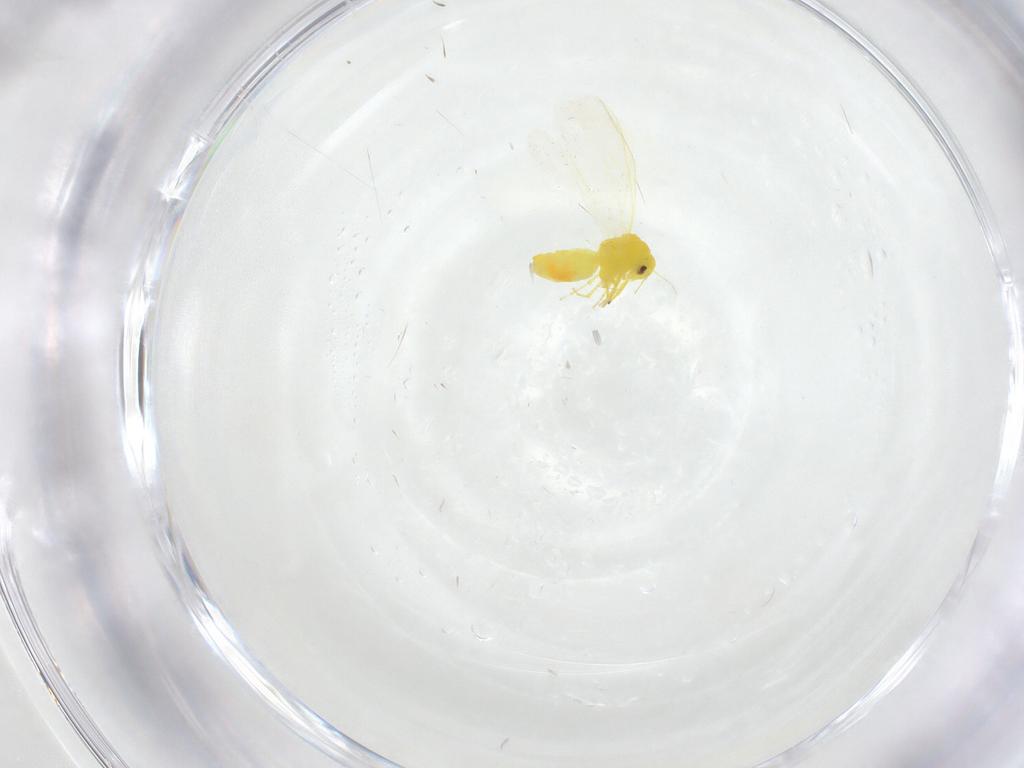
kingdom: Animalia
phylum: Arthropoda
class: Insecta
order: Hemiptera
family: Aleyrodidae
